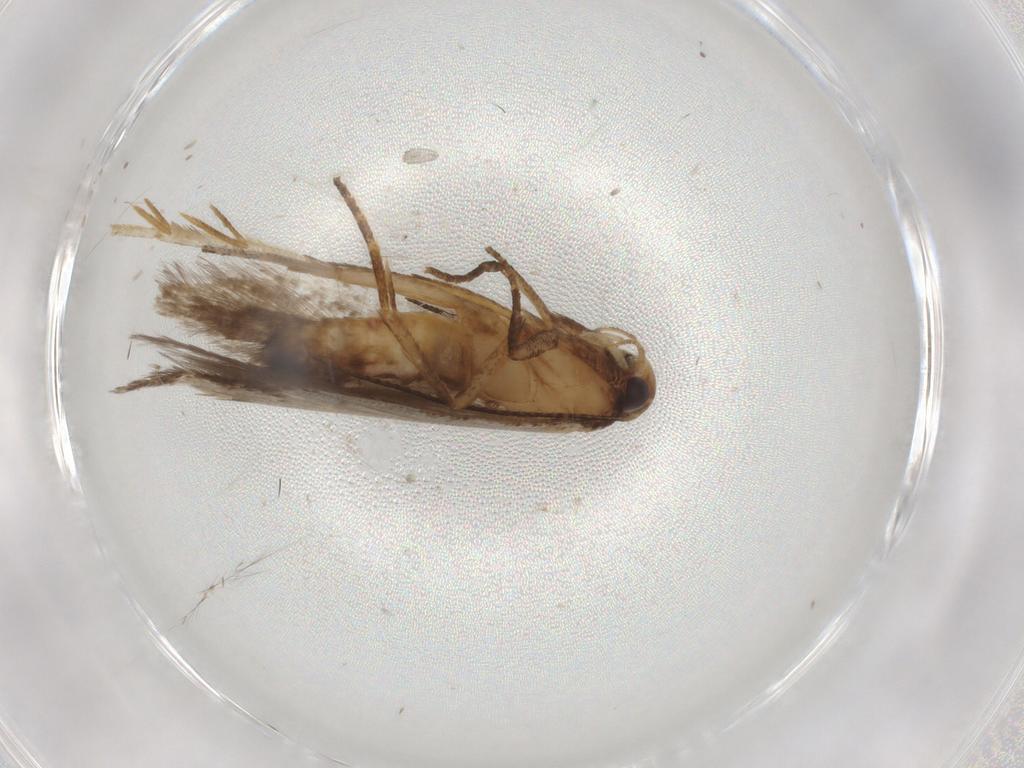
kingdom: Animalia
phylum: Arthropoda
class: Insecta
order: Lepidoptera
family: Gelechiidae
